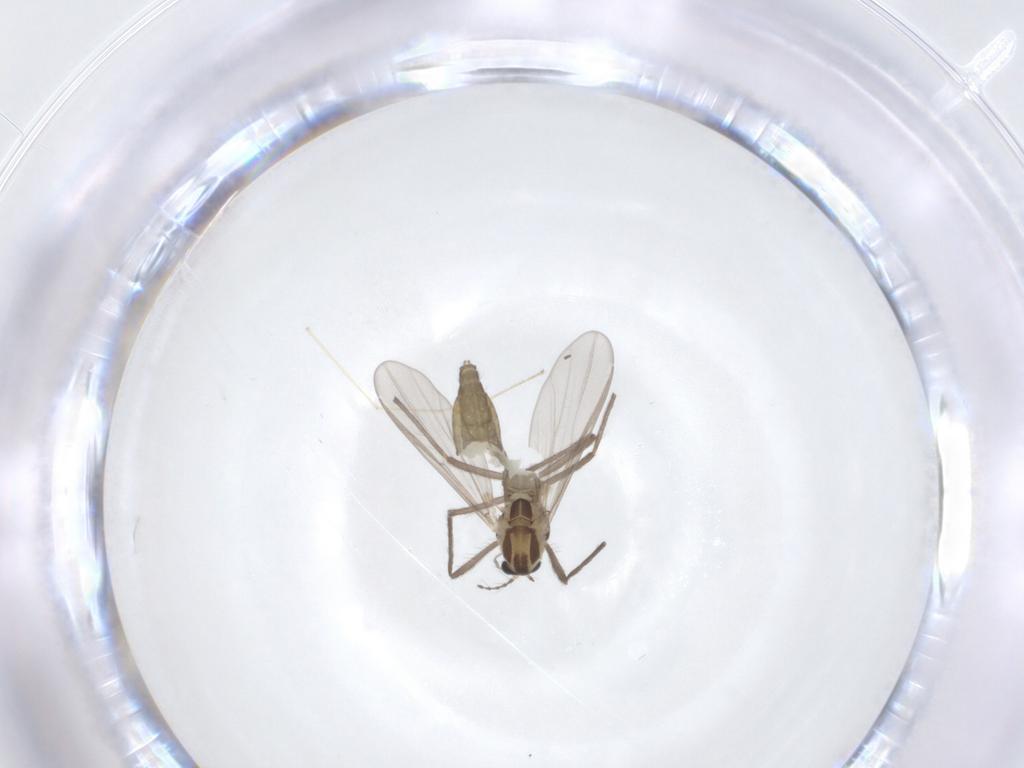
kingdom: Animalia
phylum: Arthropoda
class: Insecta
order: Diptera
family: Chironomidae
